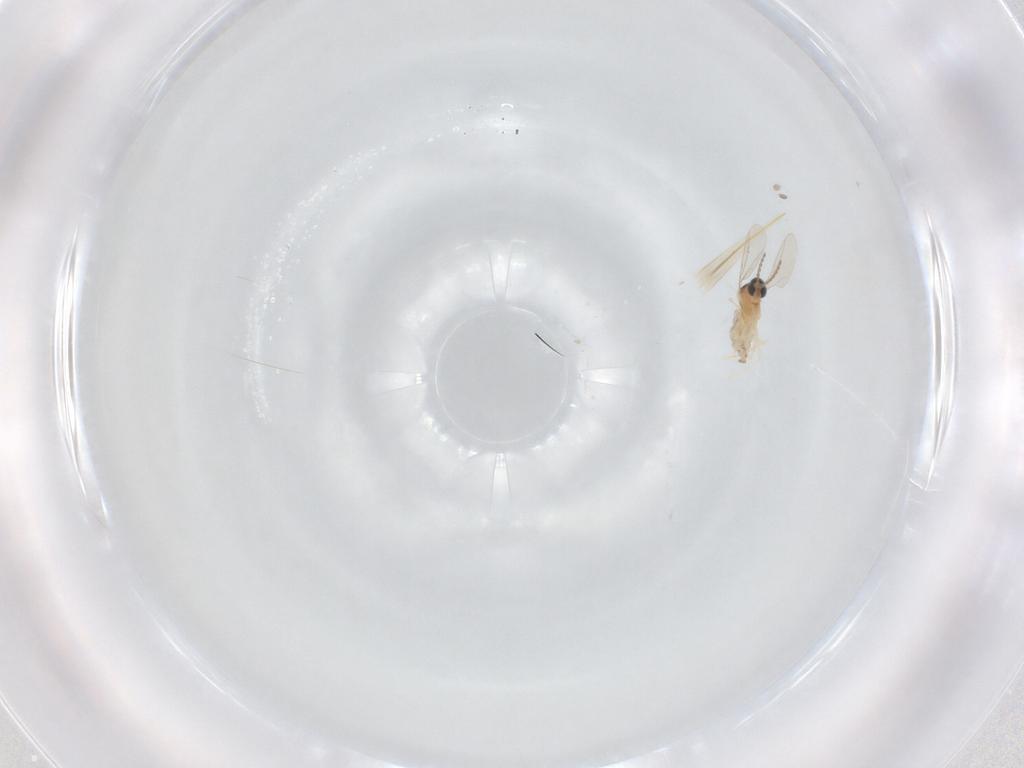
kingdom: Animalia
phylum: Arthropoda
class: Insecta
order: Diptera
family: Cecidomyiidae
